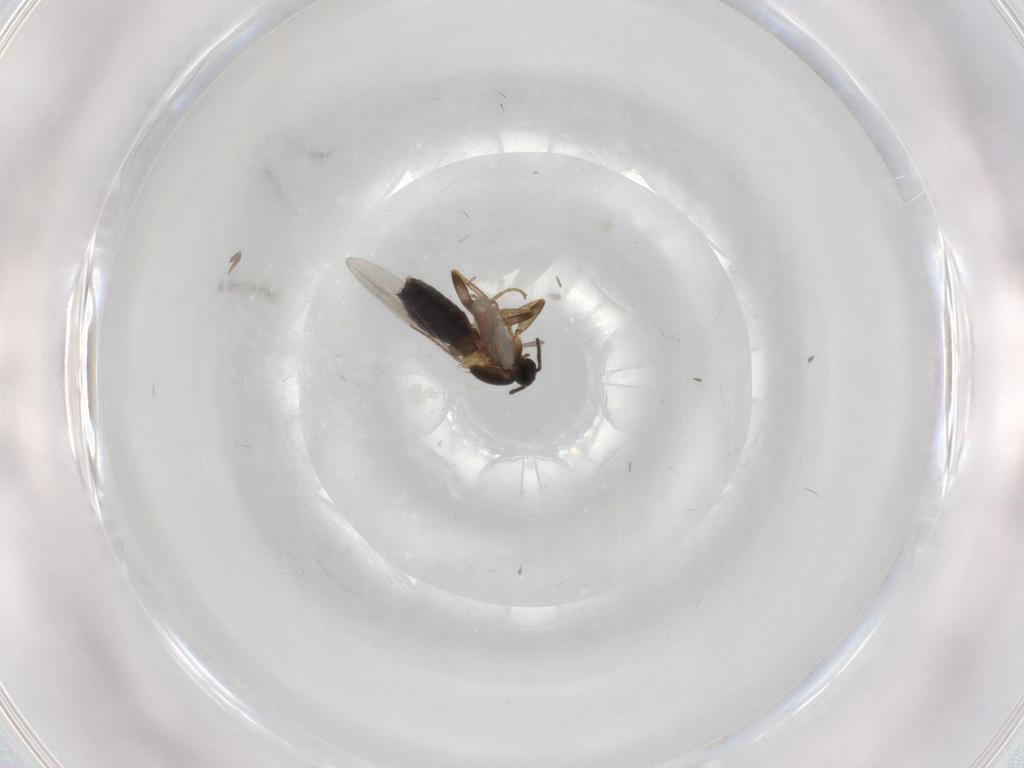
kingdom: Animalia
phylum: Arthropoda
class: Insecta
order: Diptera
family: Scatopsidae
